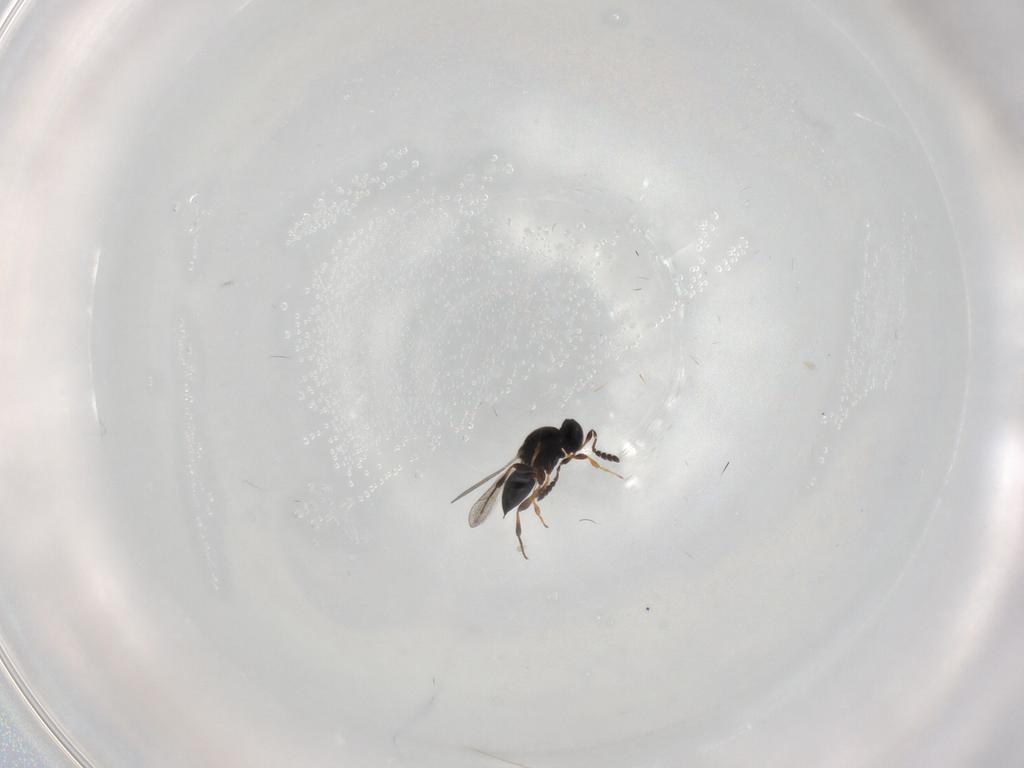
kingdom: Animalia
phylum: Arthropoda
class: Insecta
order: Hymenoptera
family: Platygastridae
